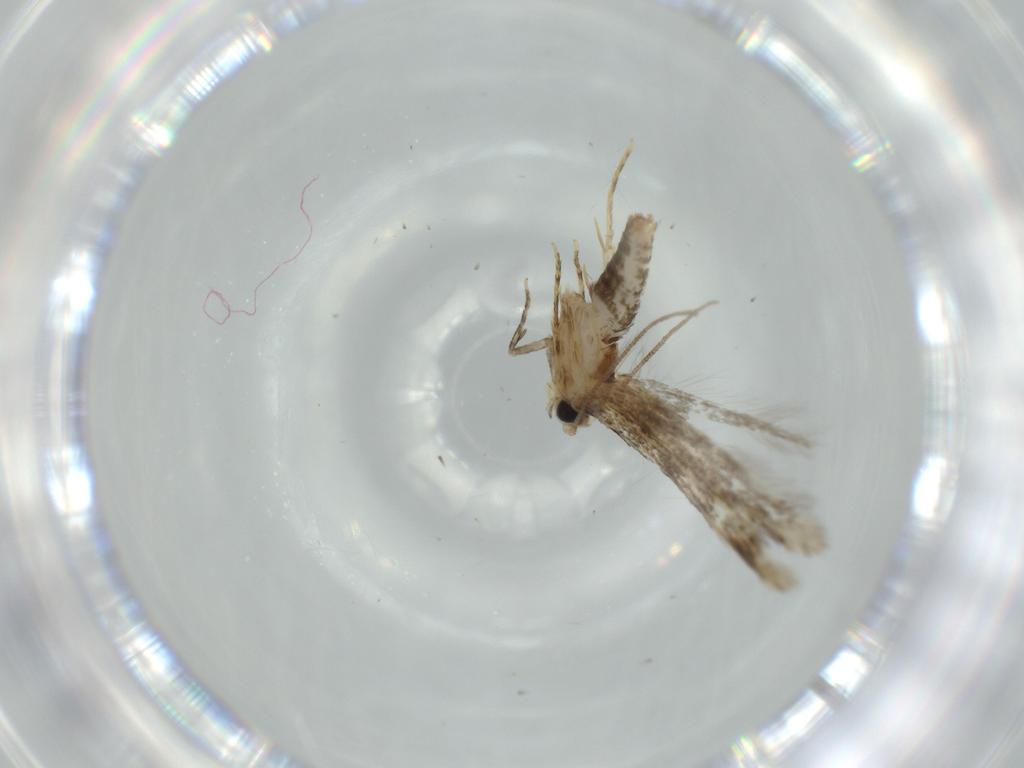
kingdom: Animalia
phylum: Arthropoda
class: Insecta
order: Lepidoptera
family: Tineidae
